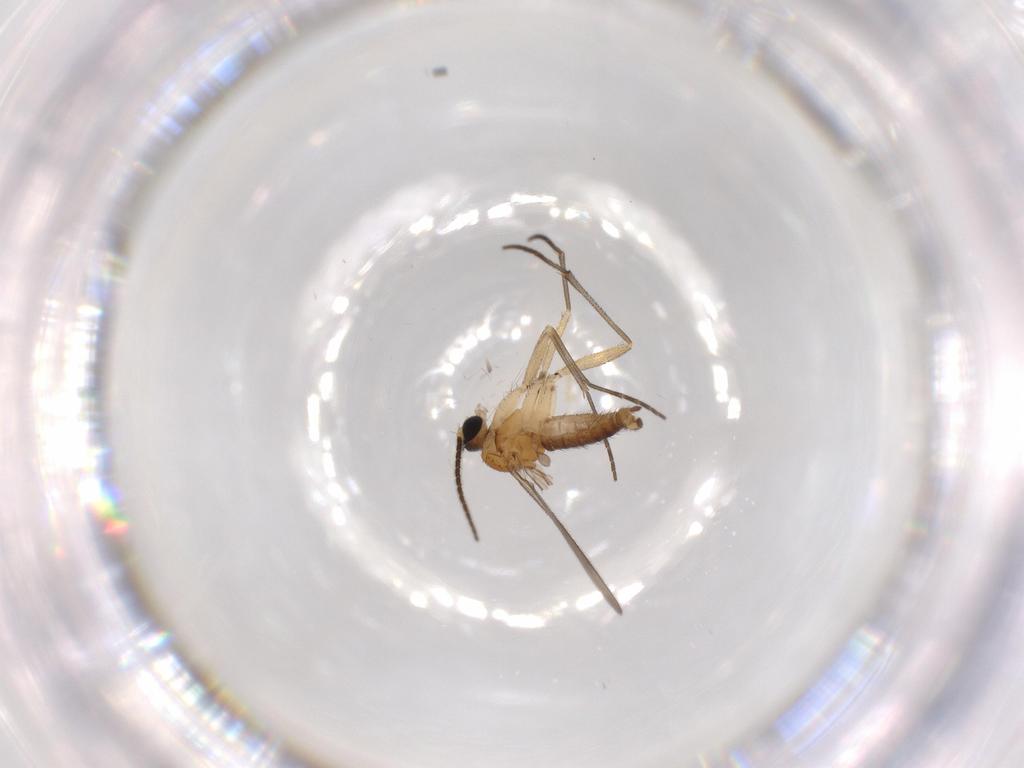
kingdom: Animalia
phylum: Arthropoda
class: Insecta
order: Diptera
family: Sciaridae
